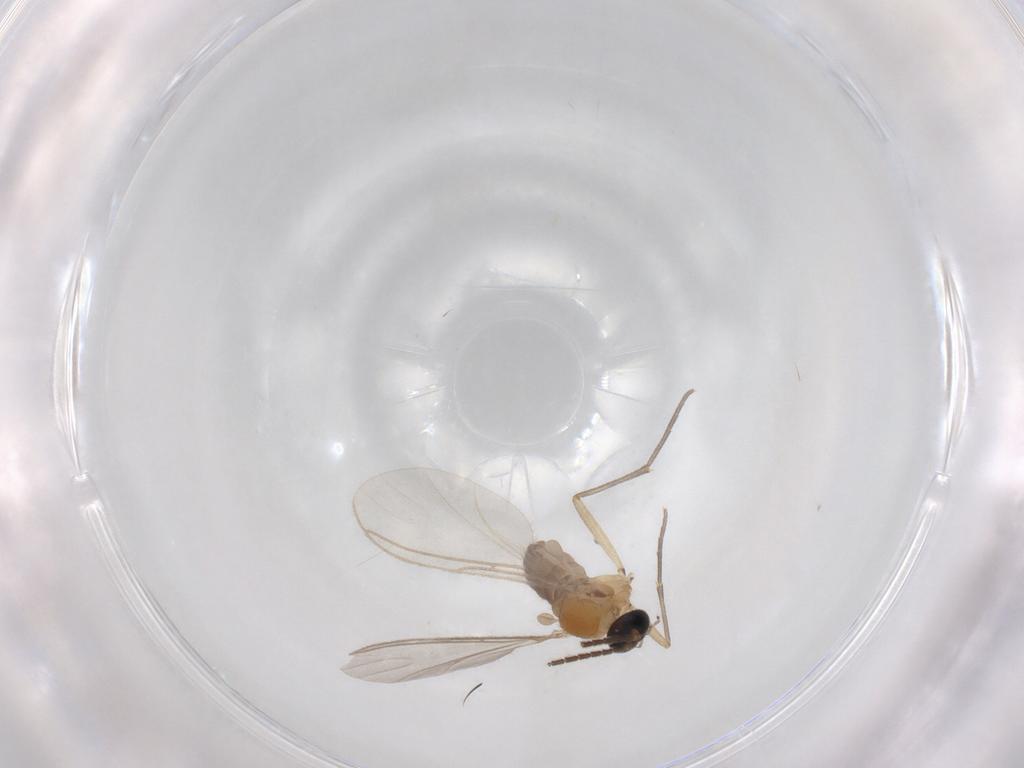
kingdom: Animalia
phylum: Arthropoda
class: Insecta
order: Diptera
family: Sciaridae
